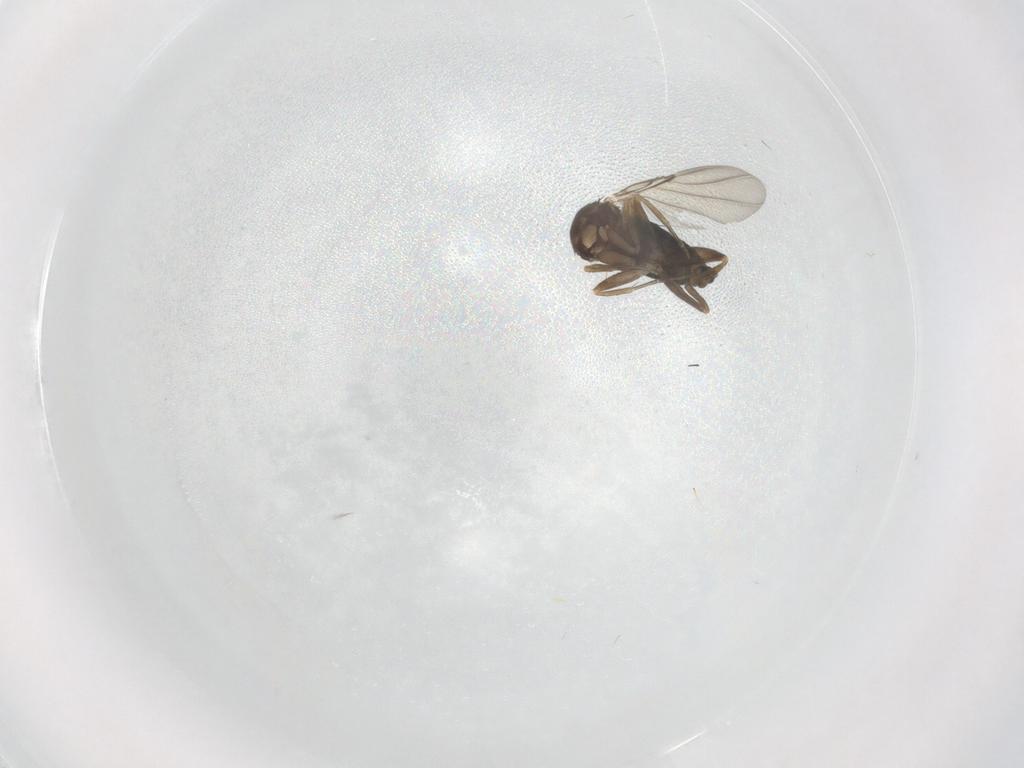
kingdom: Animalia
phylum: Arthropoda
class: Insecta
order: Diptera
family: Phoridae
